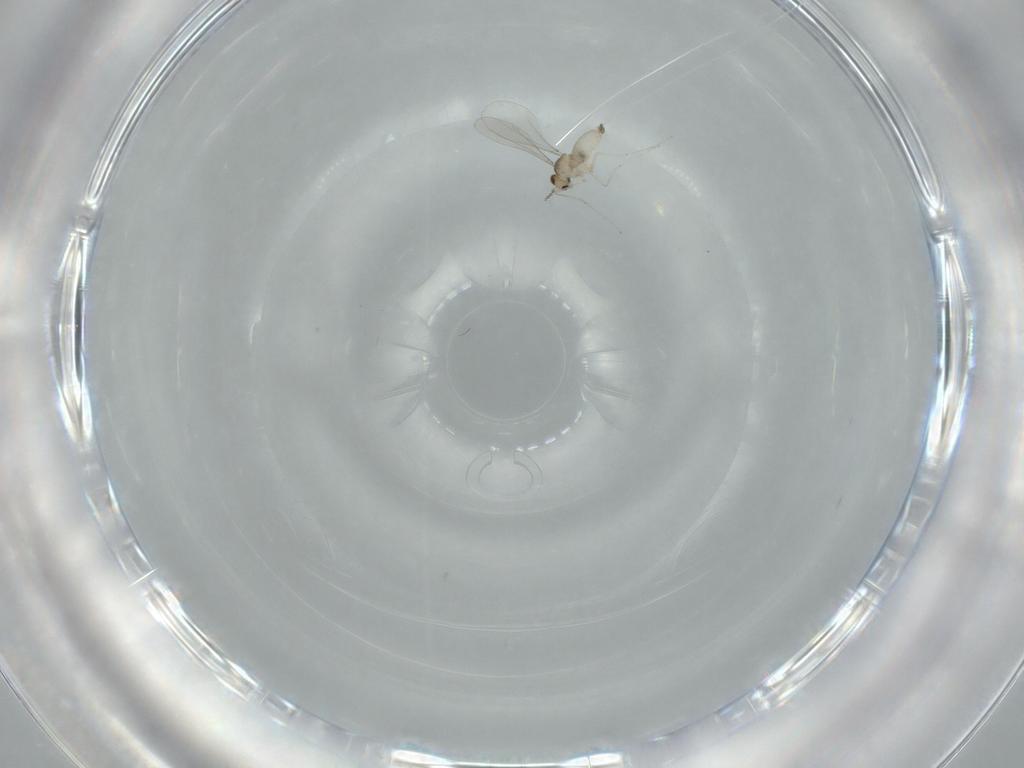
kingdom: Animalia
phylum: Arthropoda
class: Insecta
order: Diptera
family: Cecidomyiidae
